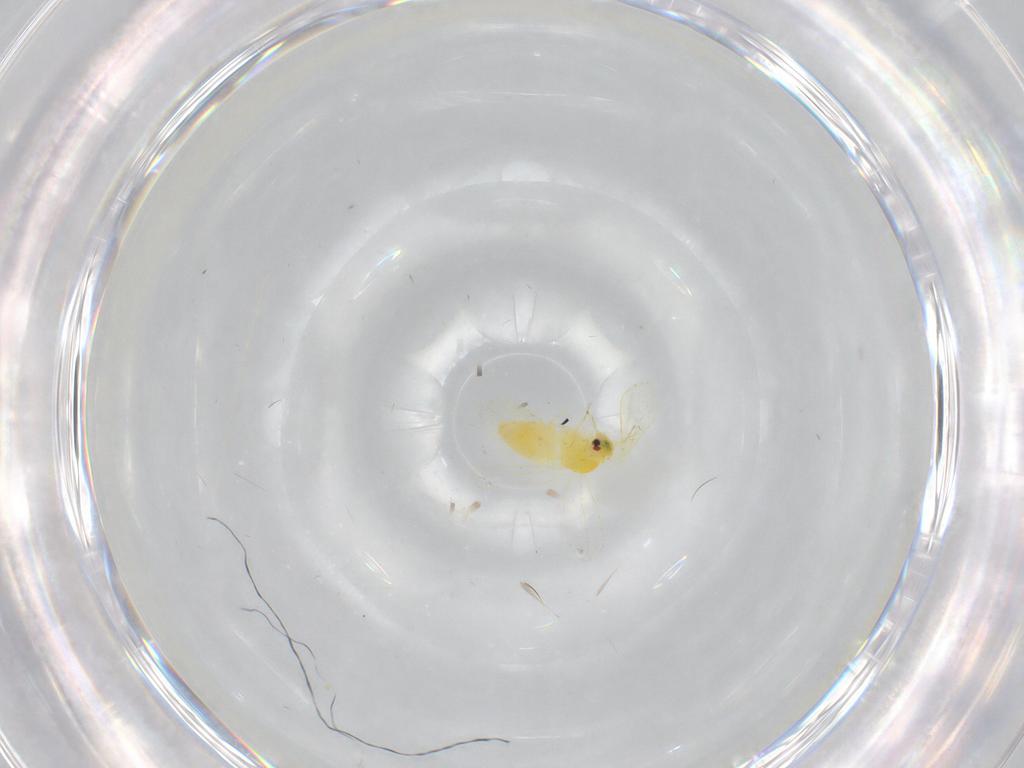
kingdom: Animalia
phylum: Arthropoda
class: Insecta
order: Hemiptera
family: Aleyrodidae
